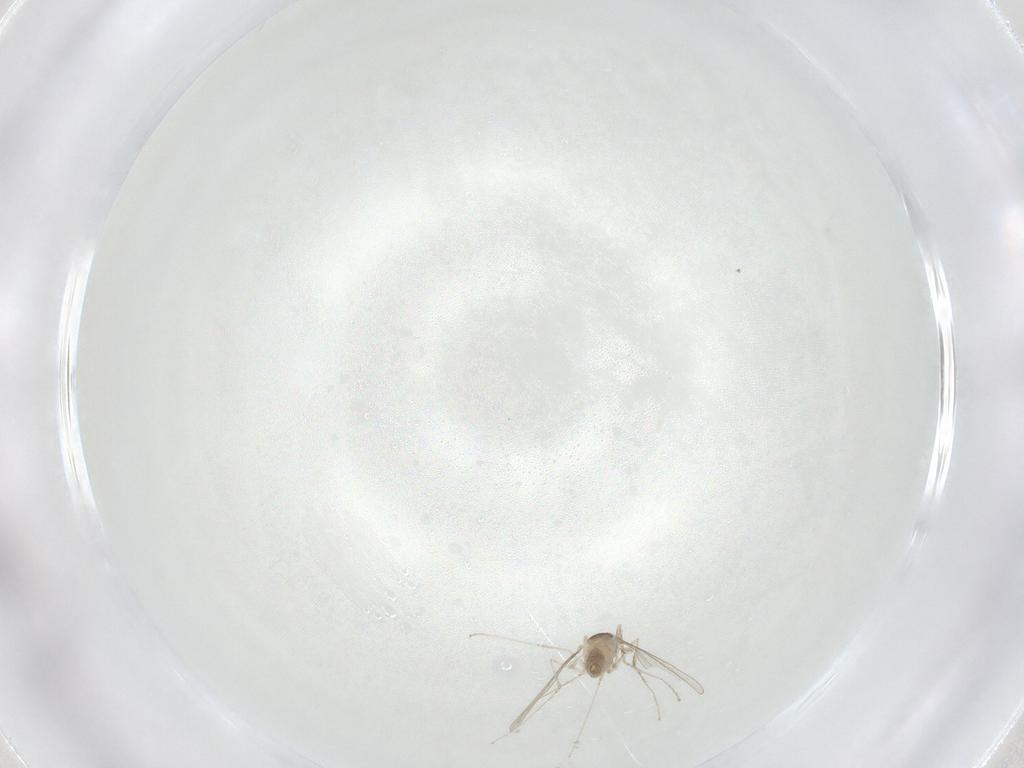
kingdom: Animalia
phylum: Arthropoda
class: Insecta
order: Diptera
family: Cecidomyiidae
